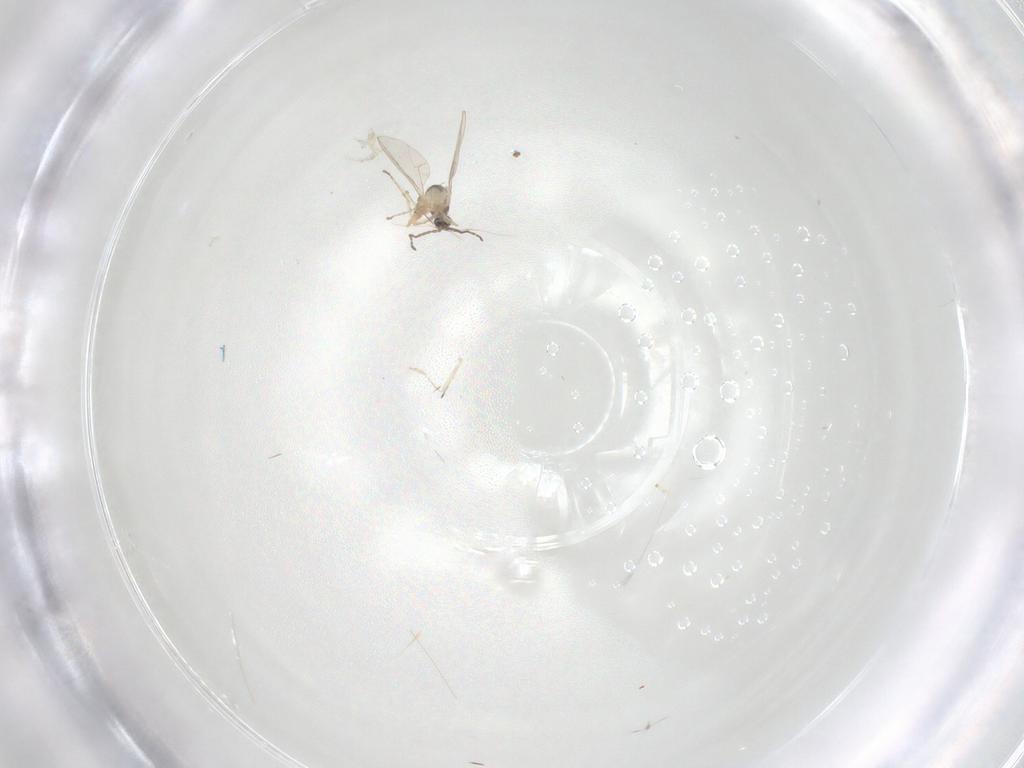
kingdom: Animalia
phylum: Arthropoda
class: Insecta
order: Diptera
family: Cecidomyiidae
